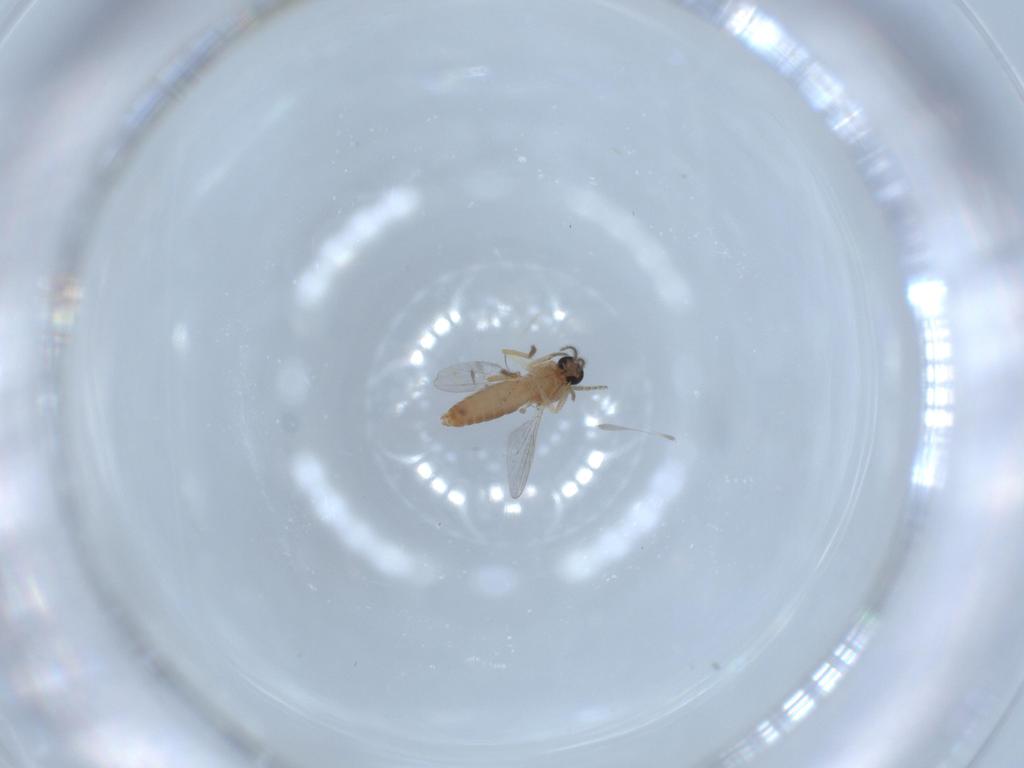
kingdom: Animalia
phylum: Arthropoda
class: Insecta
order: Diptera
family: Ceratopogonidae
